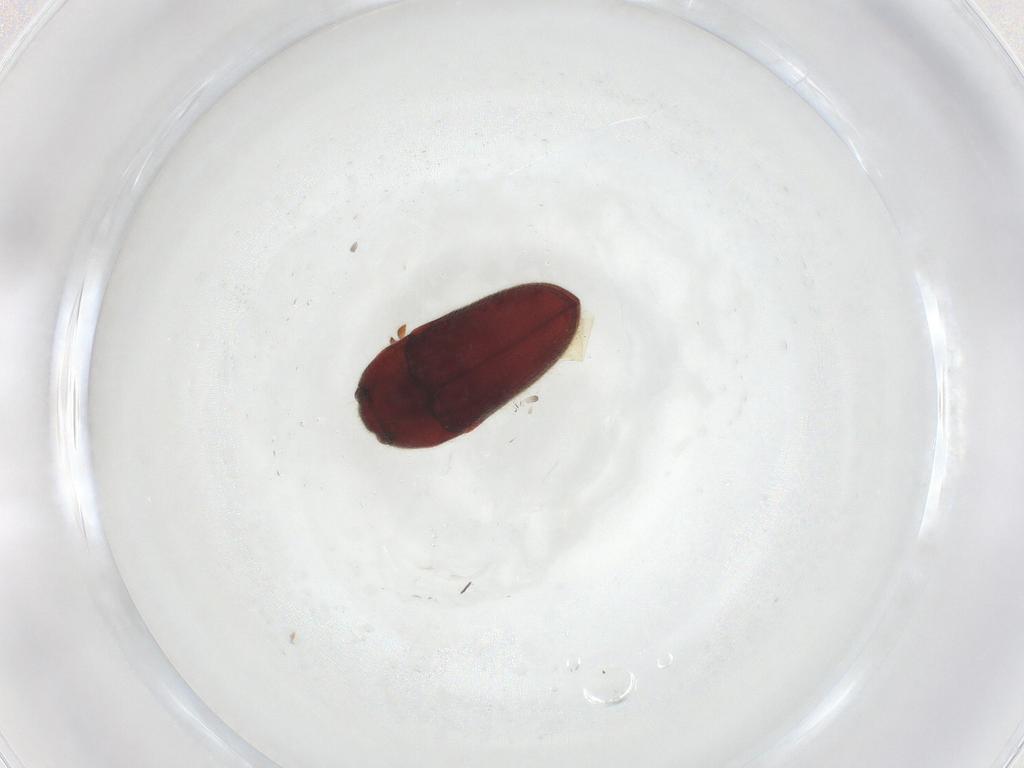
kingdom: Animalia
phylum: Arthropoda
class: Insecta
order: Coleoptera
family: Throscidae
